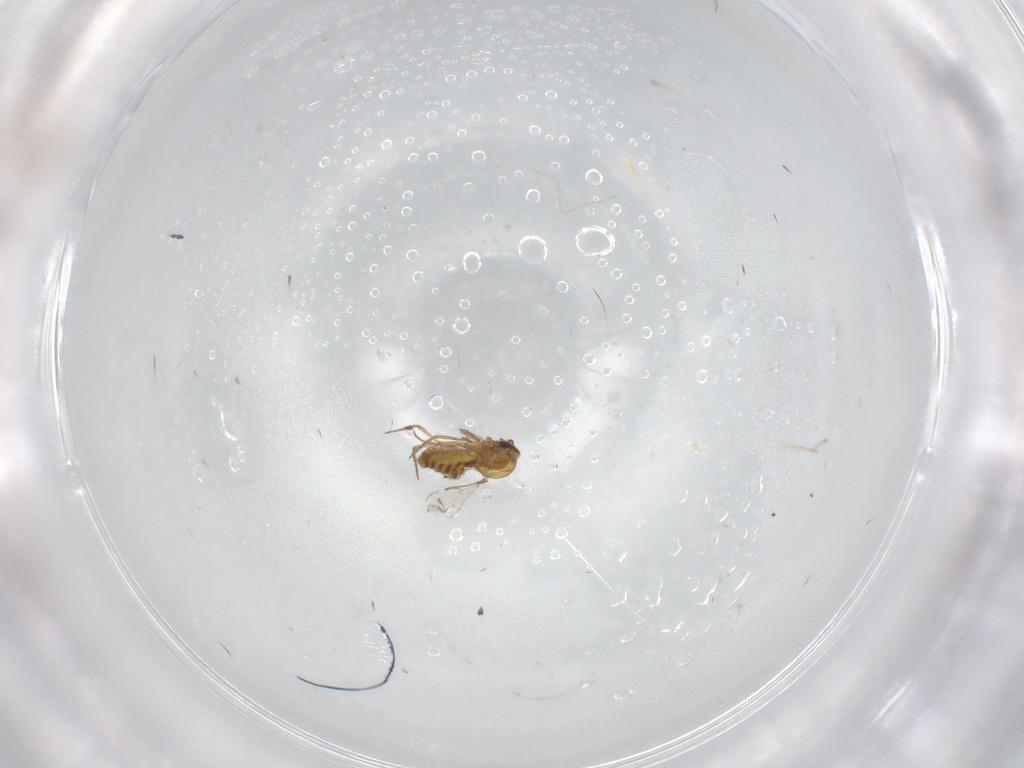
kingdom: Animalia
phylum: Arthropoda
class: Insecta
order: Diptera
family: Ceratopogonidae
